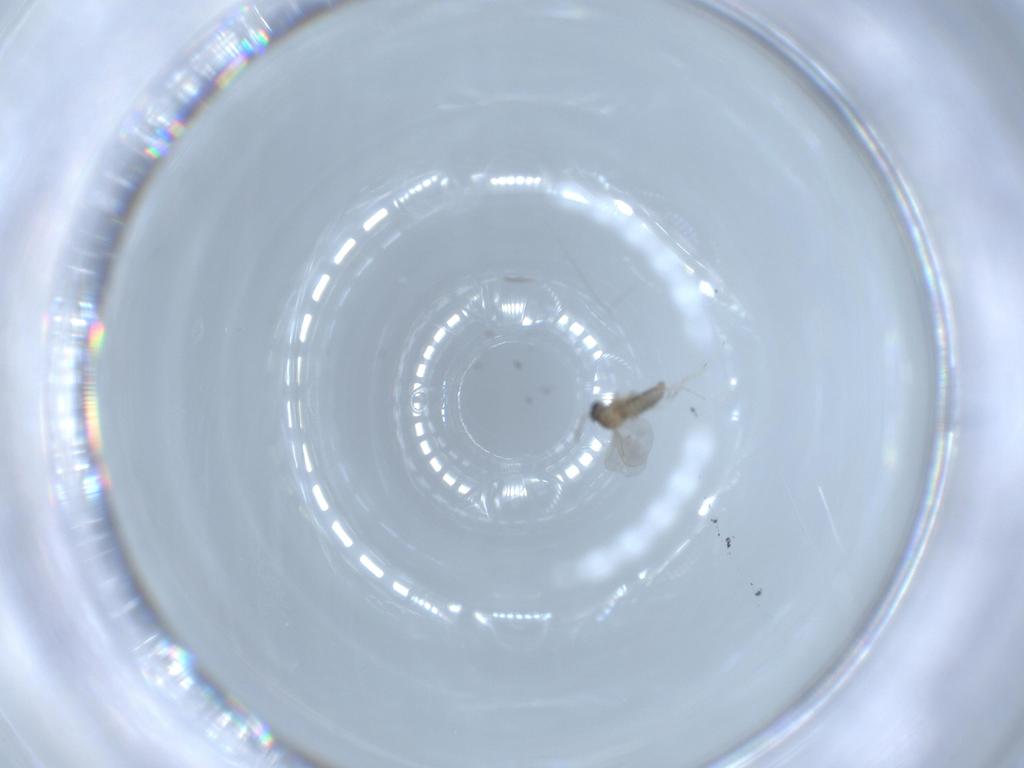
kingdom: Animalia
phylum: Arthropoda
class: Insecta
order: Diptera
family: Cecidomyiidae
